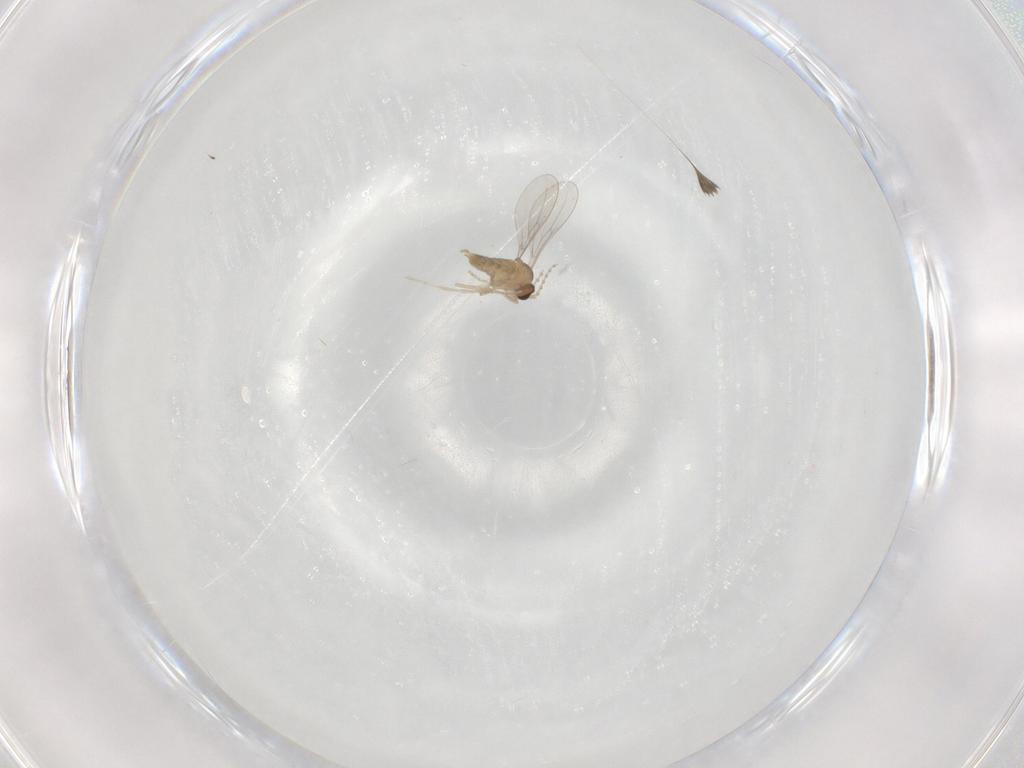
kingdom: Animalia
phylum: Arthropoda
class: Insecta
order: Diptera
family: Cecidomyiidae
